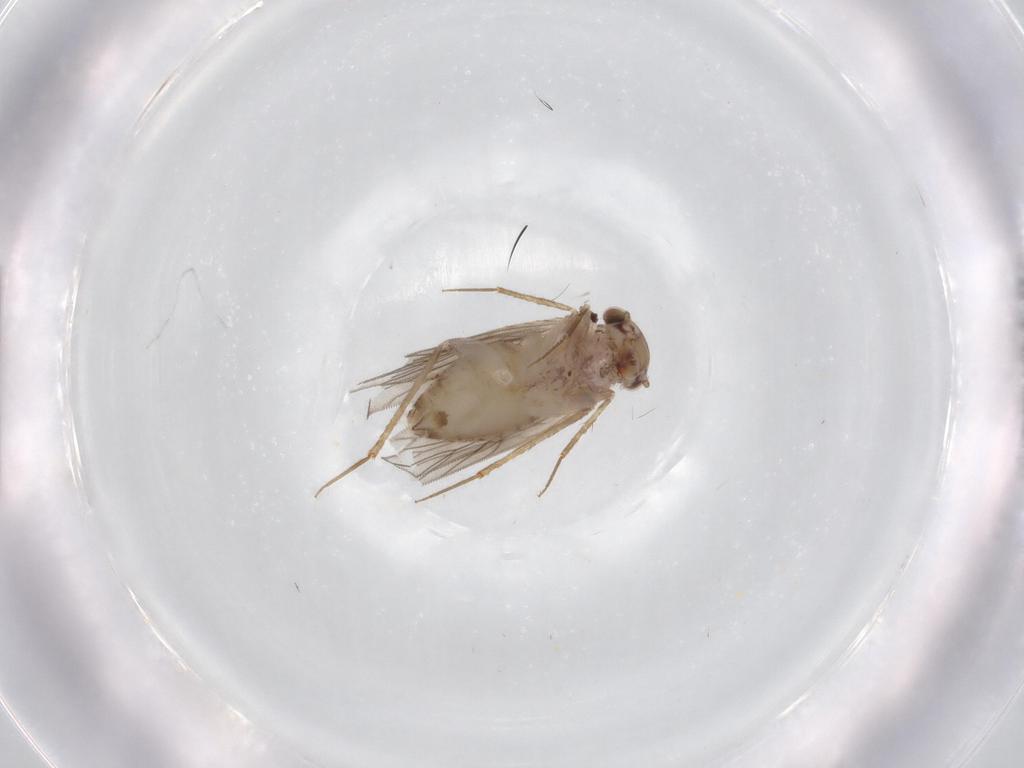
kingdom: Animalia
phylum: Arthropoda
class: Insecta
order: Psocodea
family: Lepidopsocidae
